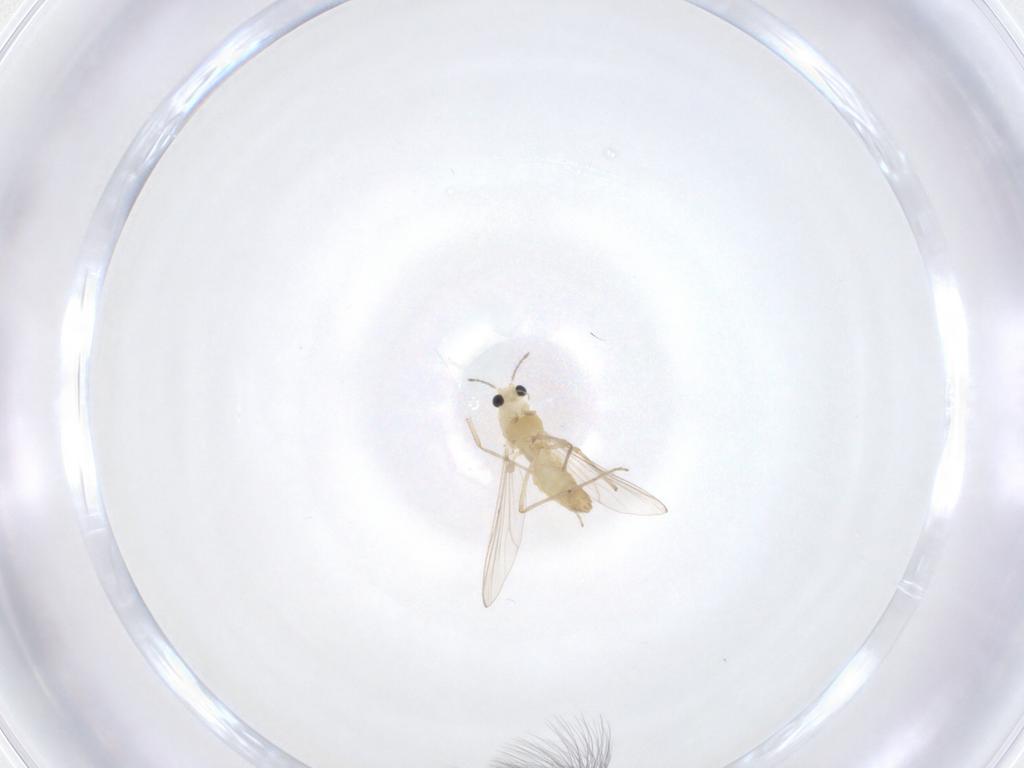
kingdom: Animalia
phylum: Arthropoda
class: Insecta
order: Diptera
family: Chironomidae
